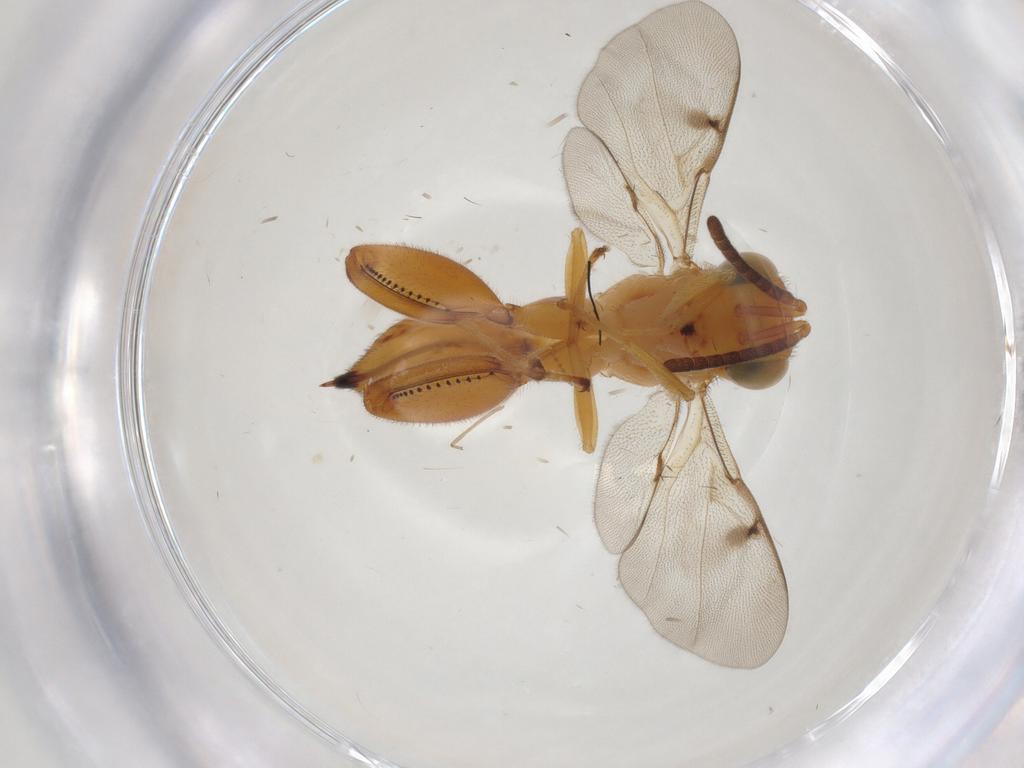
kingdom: Animalia
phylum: Arthropoda
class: Insecta
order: Hymenoptera
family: Chalcididae
